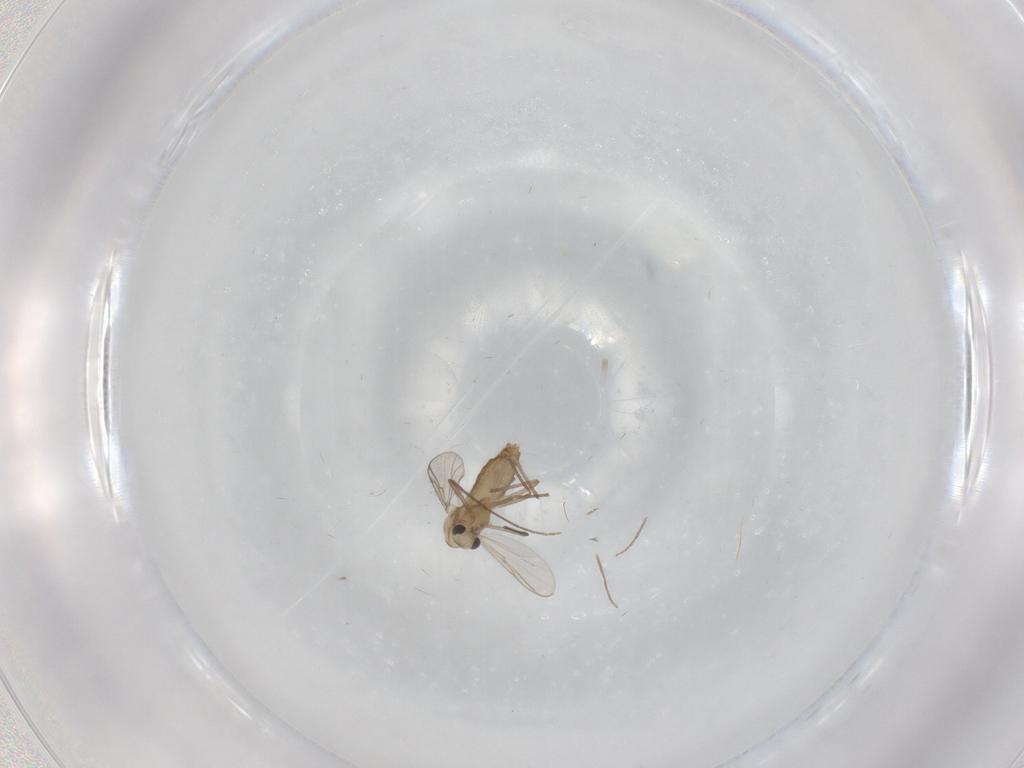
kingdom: Animalia
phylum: Arthropoda
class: Insecta
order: Diptera
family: Chironomidae
